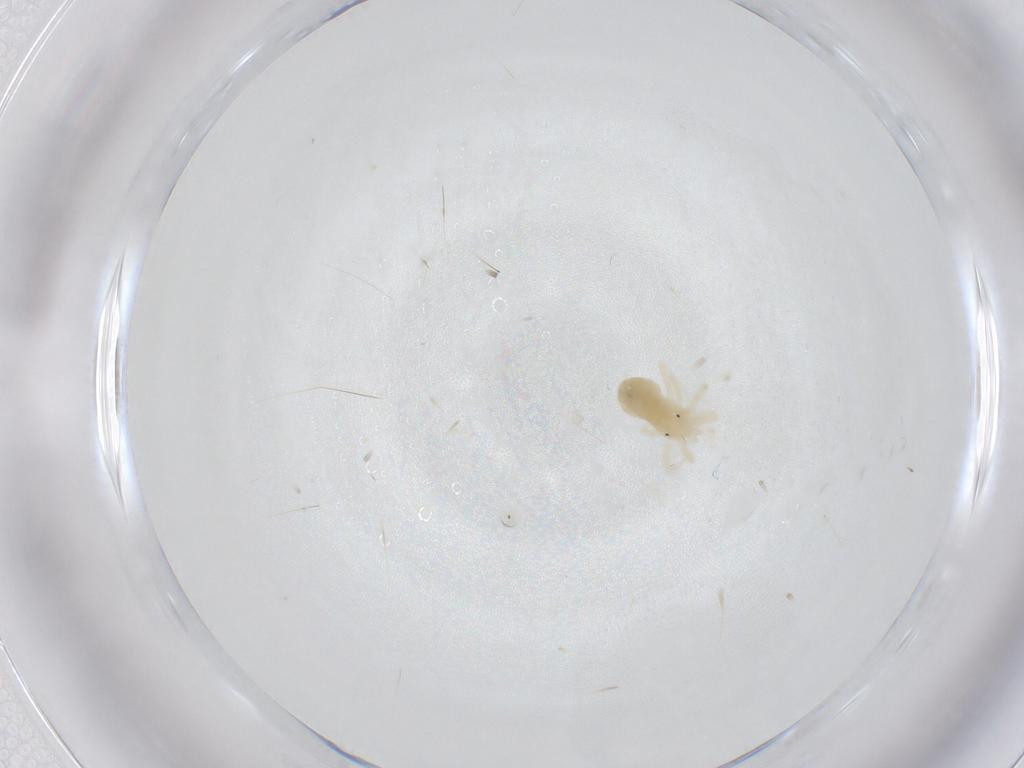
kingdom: Animalia
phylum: Arthropoda
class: Arachnida
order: Trombidiformes
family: Anystidae
